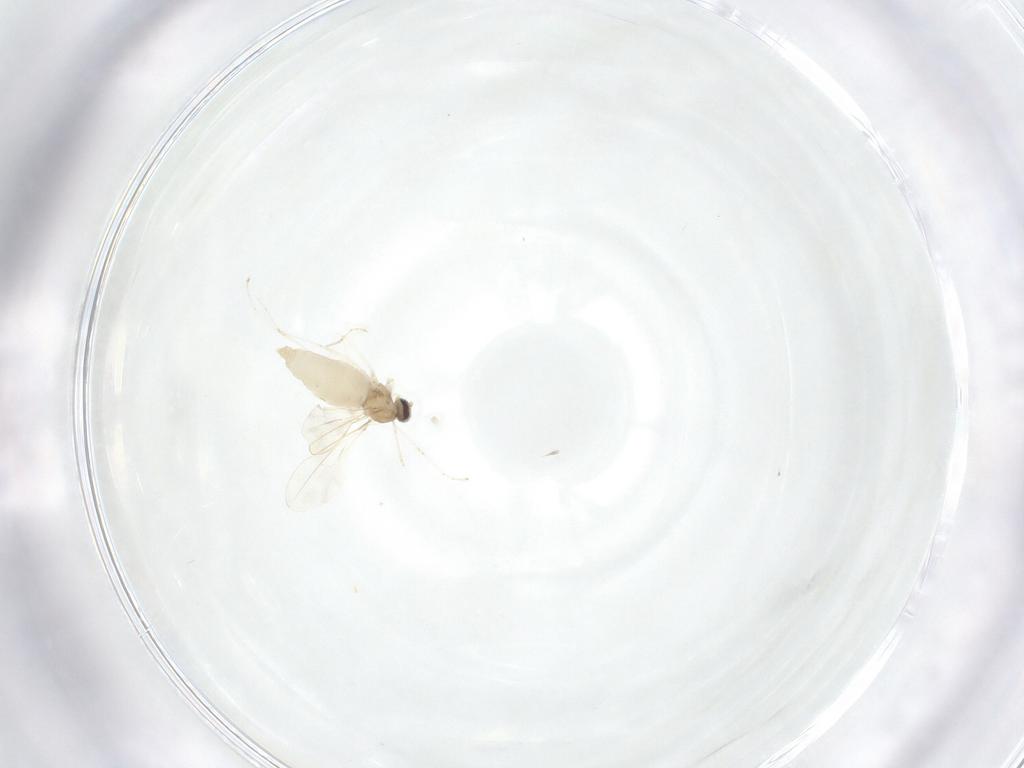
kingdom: Animalia
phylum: Arthropoda
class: Insecta
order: Diptera
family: Cecidomyiidae
